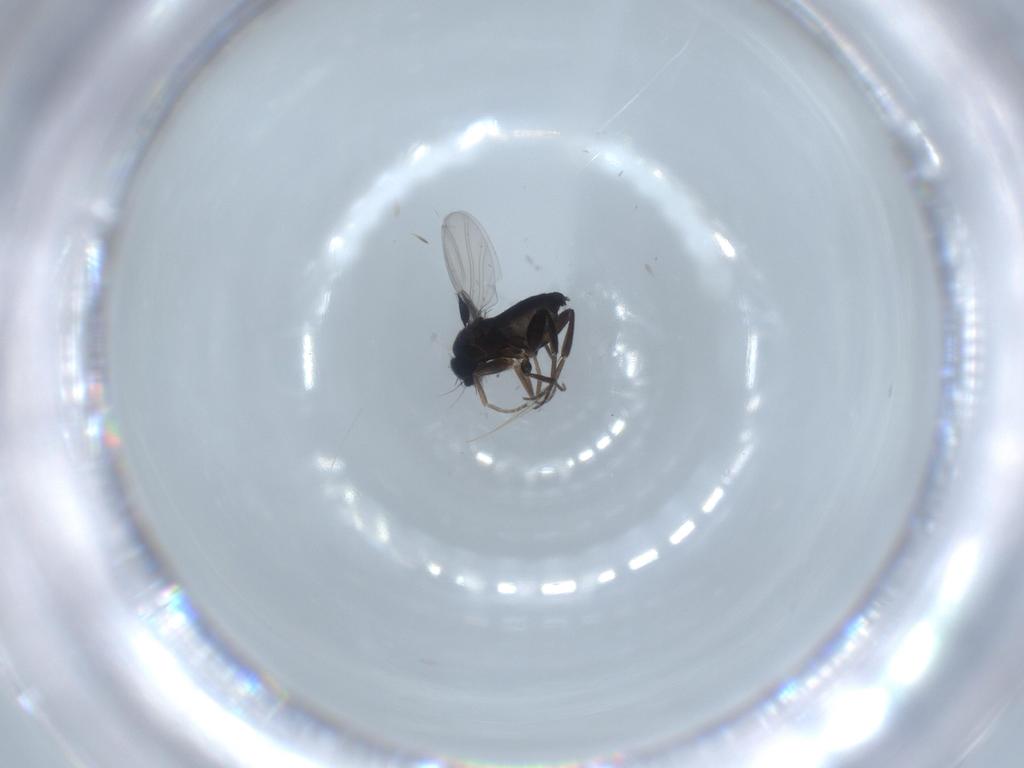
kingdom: Animalia
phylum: Arthropoda
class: Insecta
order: Diptera
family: Phoridae
